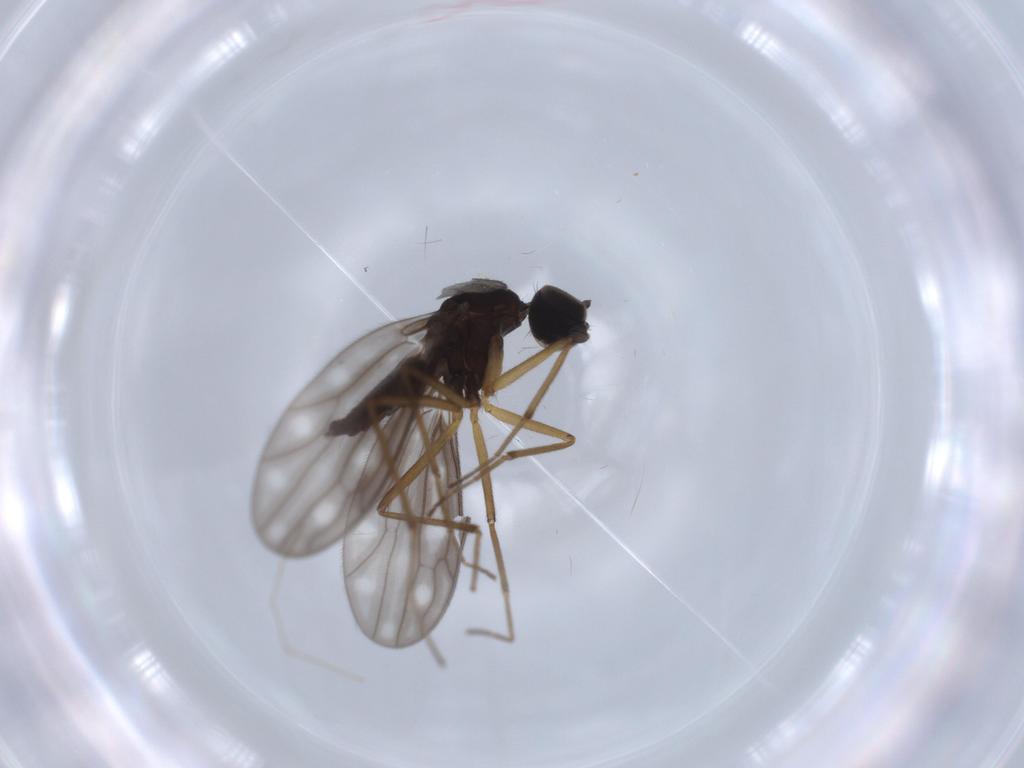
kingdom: Animalia
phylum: Arthropoda
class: Insecta
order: Diptera
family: Empididae
